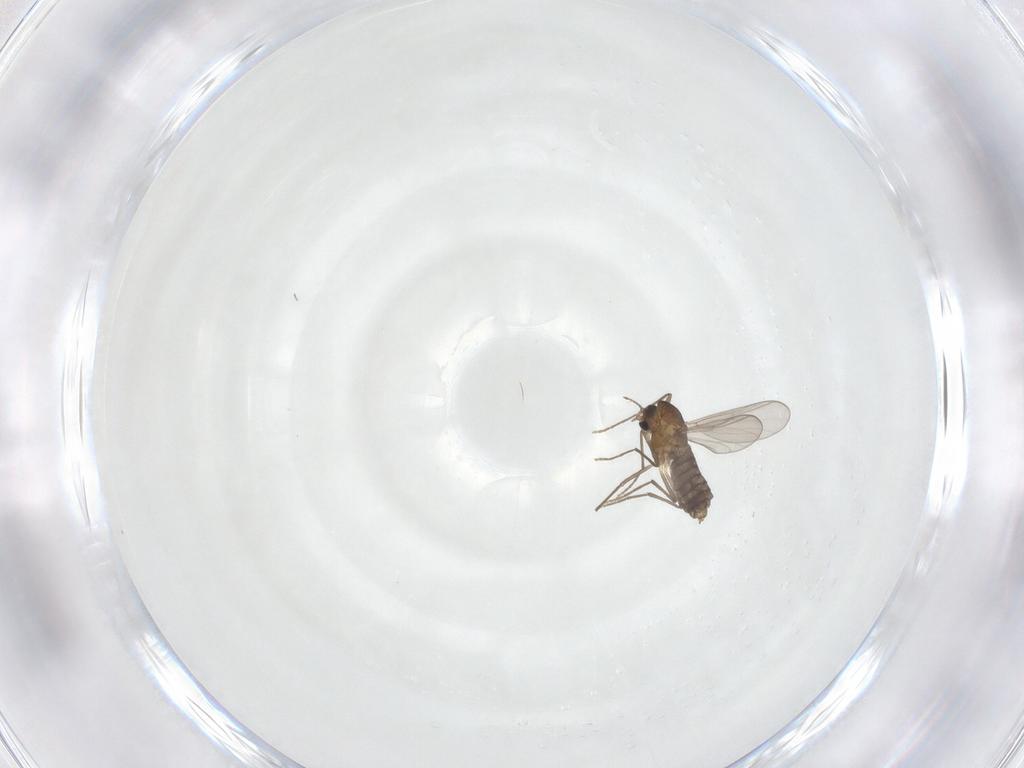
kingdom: Animalia
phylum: Arthropoda
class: Insecta
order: Diptera
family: Chironomidae
